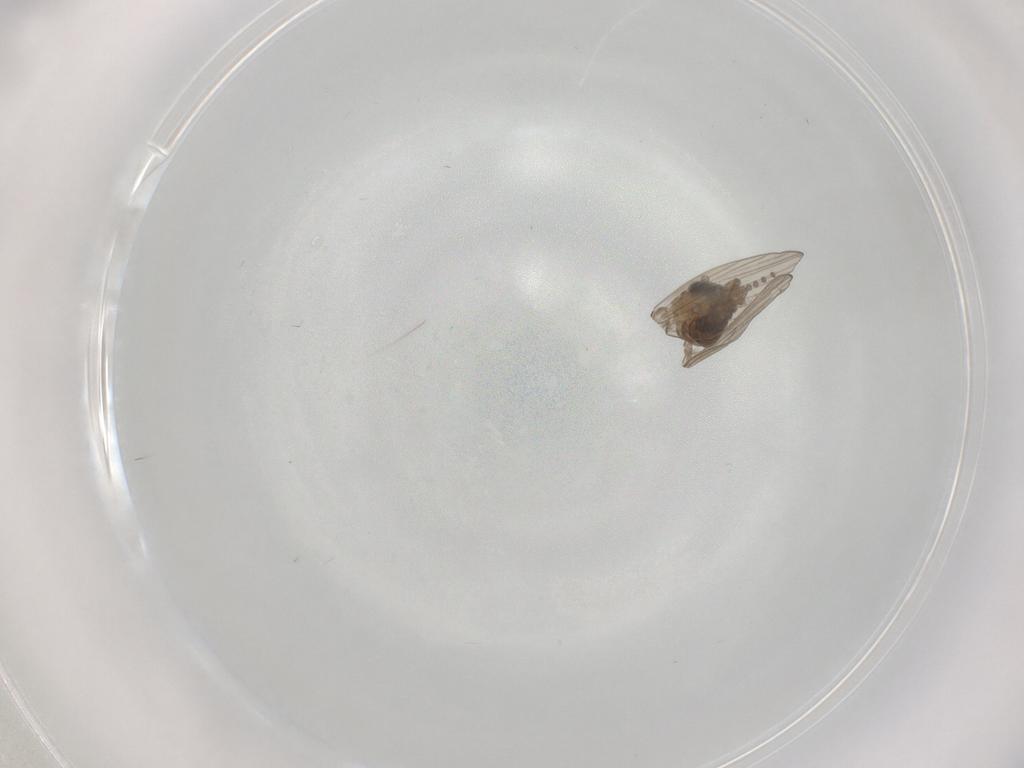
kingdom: Animalia
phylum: Arthropoda
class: Insecta
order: Diptera
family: Psychodidae
